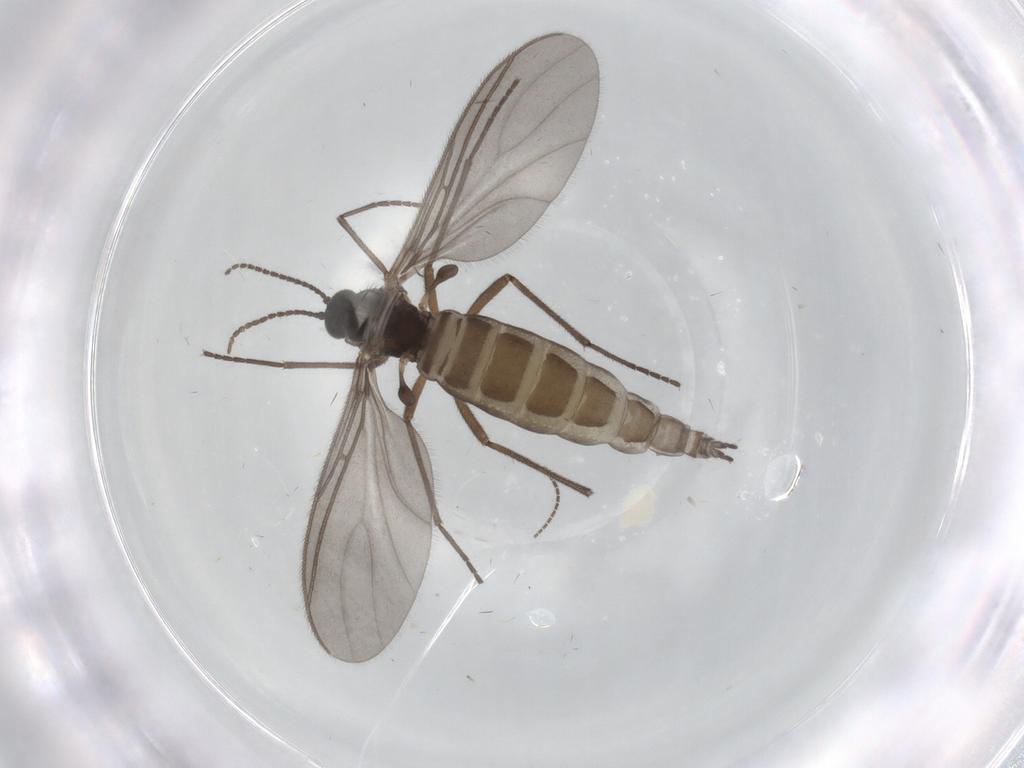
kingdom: Animalia
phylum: Arthropoda
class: Insecta
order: Diptera
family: Sciaridae
